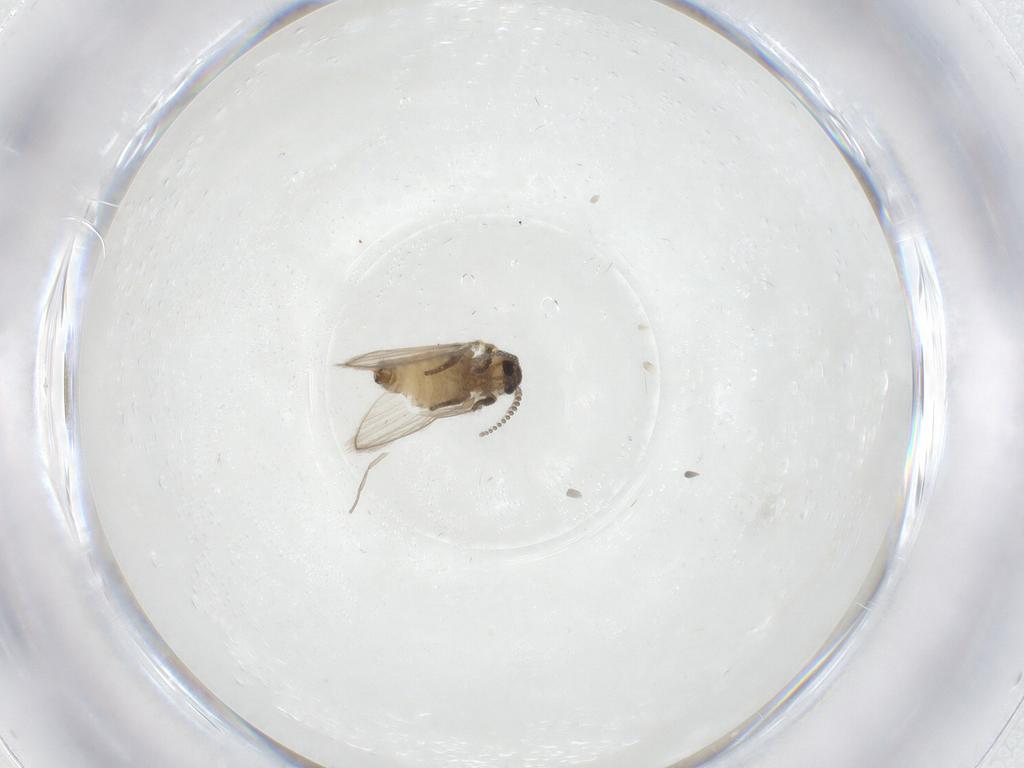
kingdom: Animalia
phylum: Arthropoda
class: Insecta
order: Diptera
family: Psychodidae
